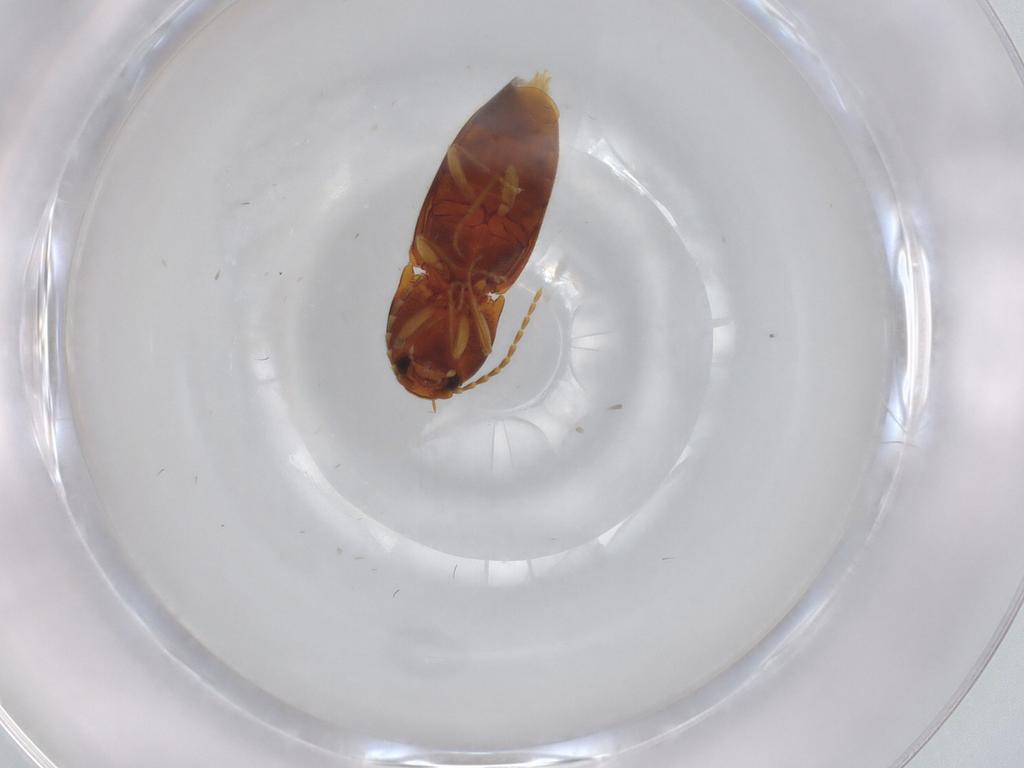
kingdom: Animalia
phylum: Arthropoda
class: Insecta
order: Coleoptera
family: Elateridae
